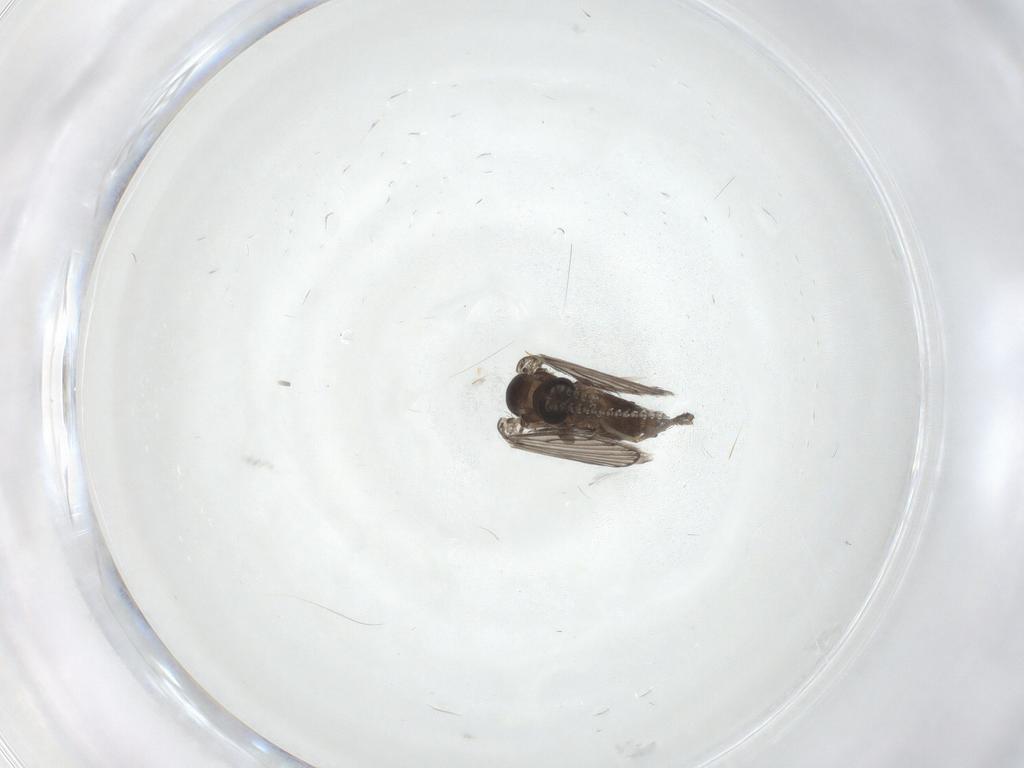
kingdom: Animalia
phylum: Arthropoda
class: Insecta
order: Diptera
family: Psychodidae
